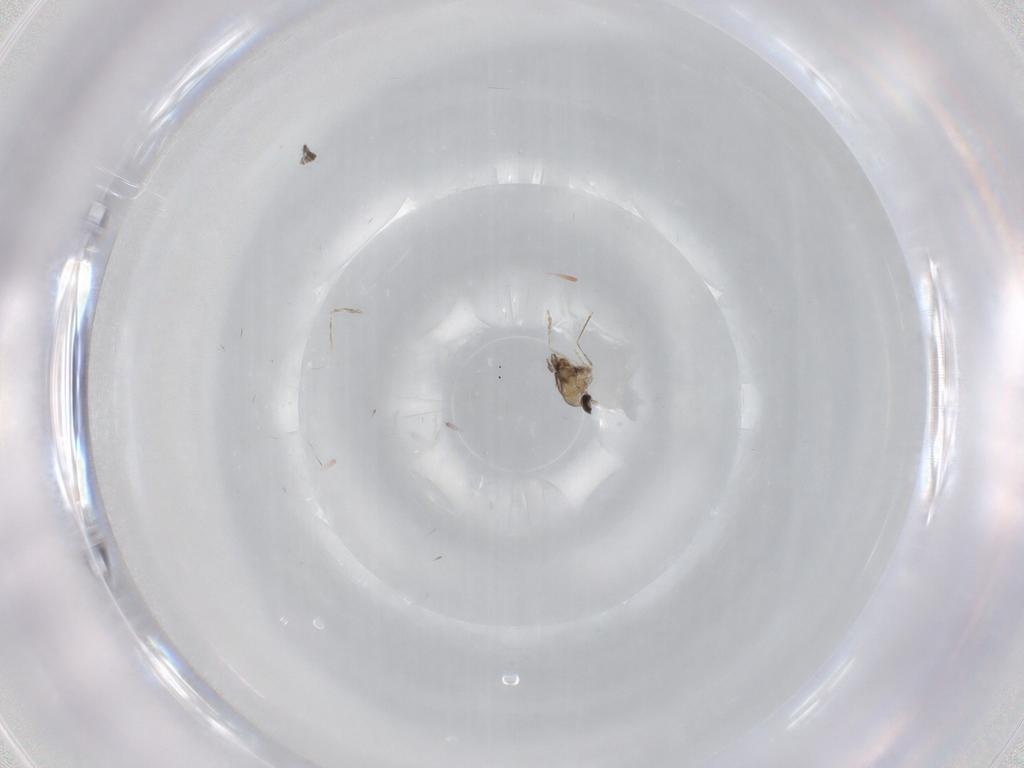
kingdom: Animalia
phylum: Arthropoda
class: Insecta
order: Diptera
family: Cecidomyiidae
